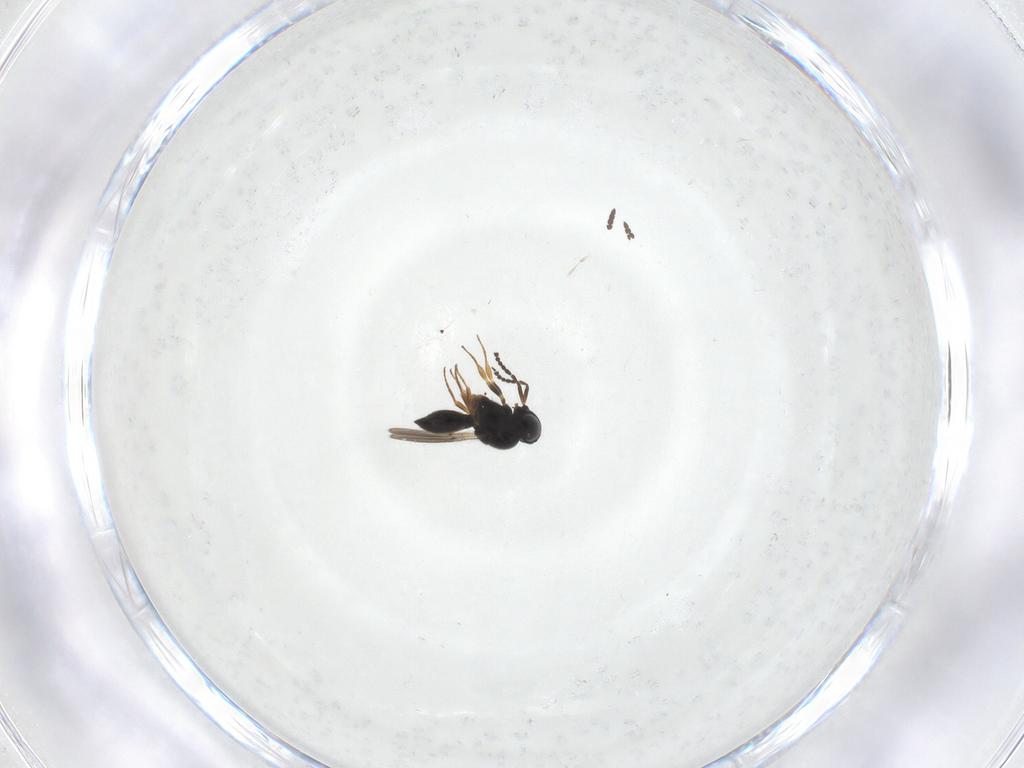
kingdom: Animalia
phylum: Arthropoda
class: Insecta
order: Hymenoptera
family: Scelionidae
